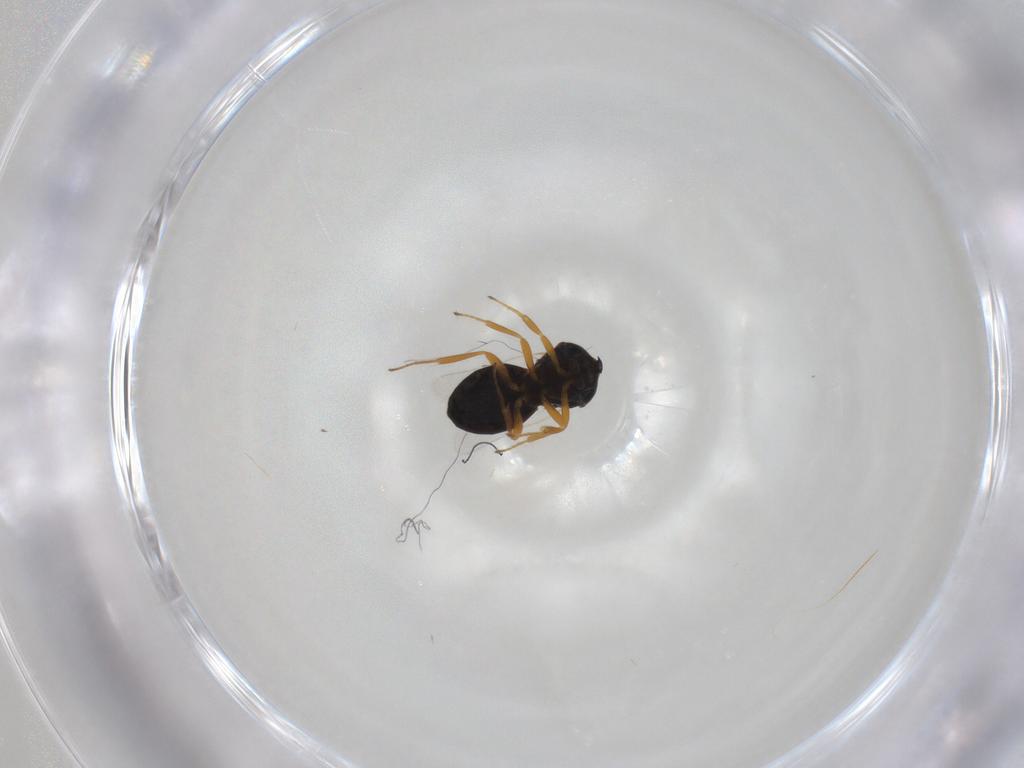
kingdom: Animalia
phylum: Arthropoda
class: Insecta
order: Hymenoptera
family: Scelionidae
